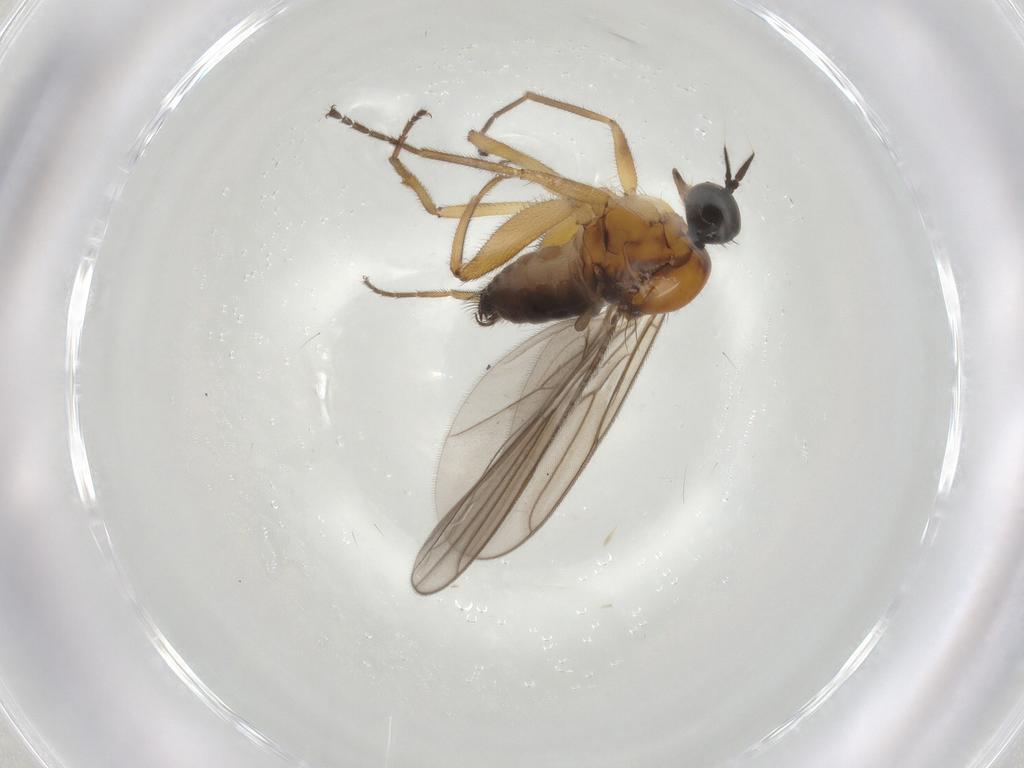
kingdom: Animalia
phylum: Arthropoda
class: Insecta
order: Diptera
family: Hybotidae
